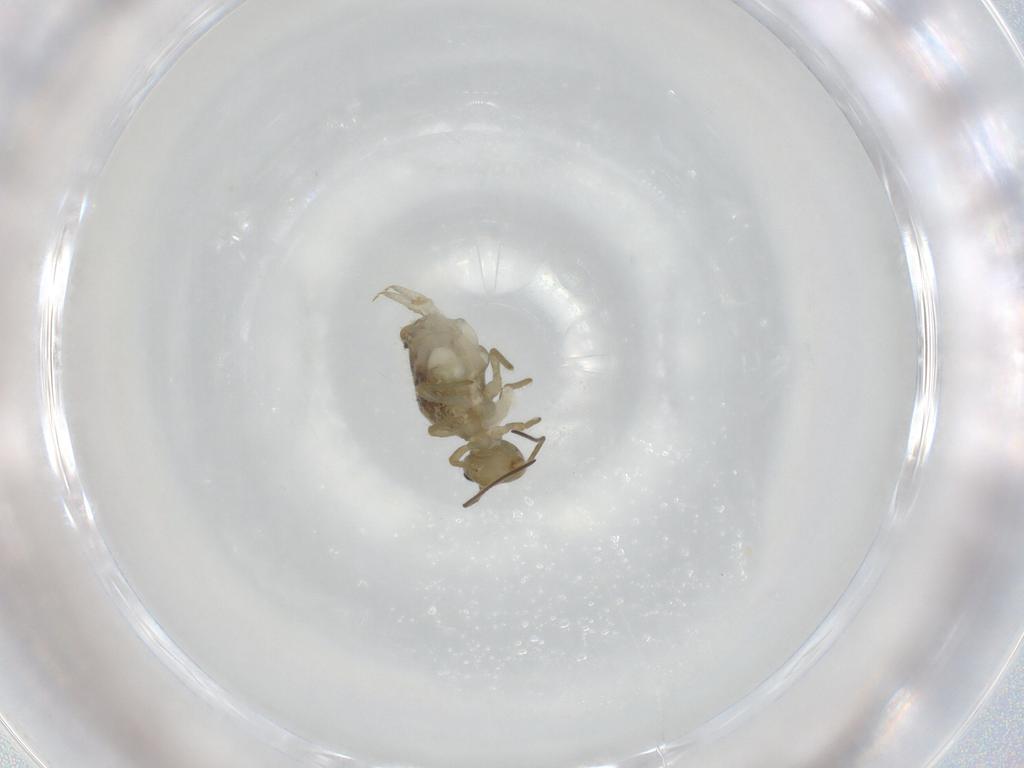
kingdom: Animalia
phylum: Arthropoda
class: Collembola
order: Symphypleona
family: Sminthuridae
